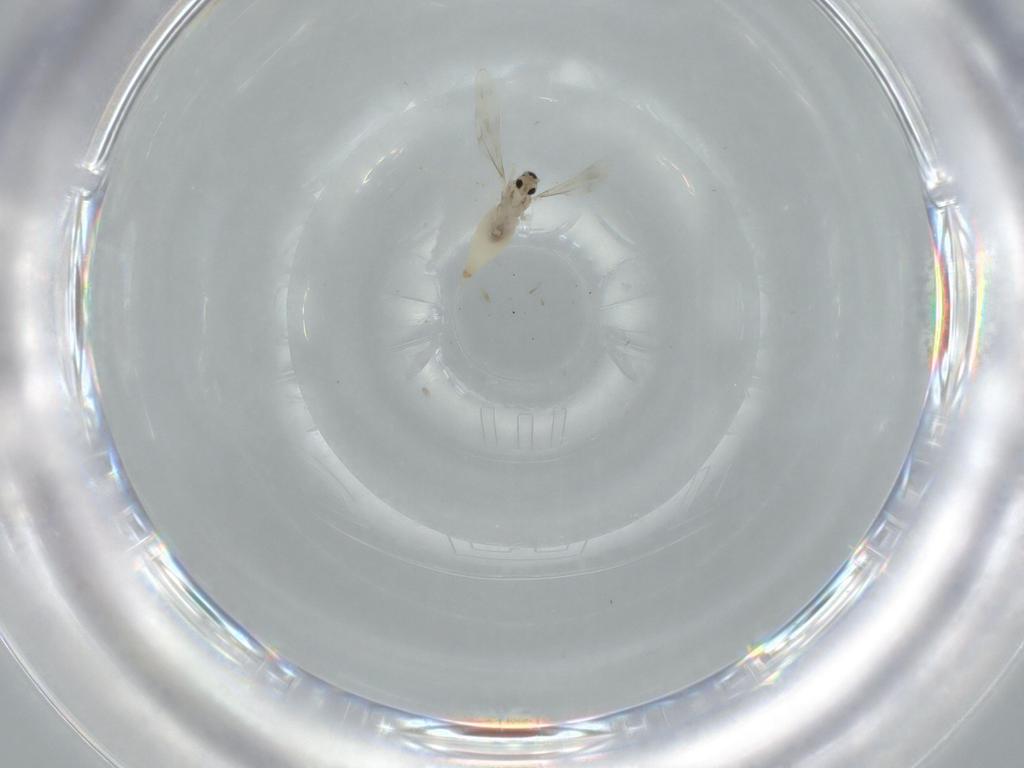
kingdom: Animalia
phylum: Arthropoda
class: Insecta
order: Diptera
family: Cecidomyiidae
